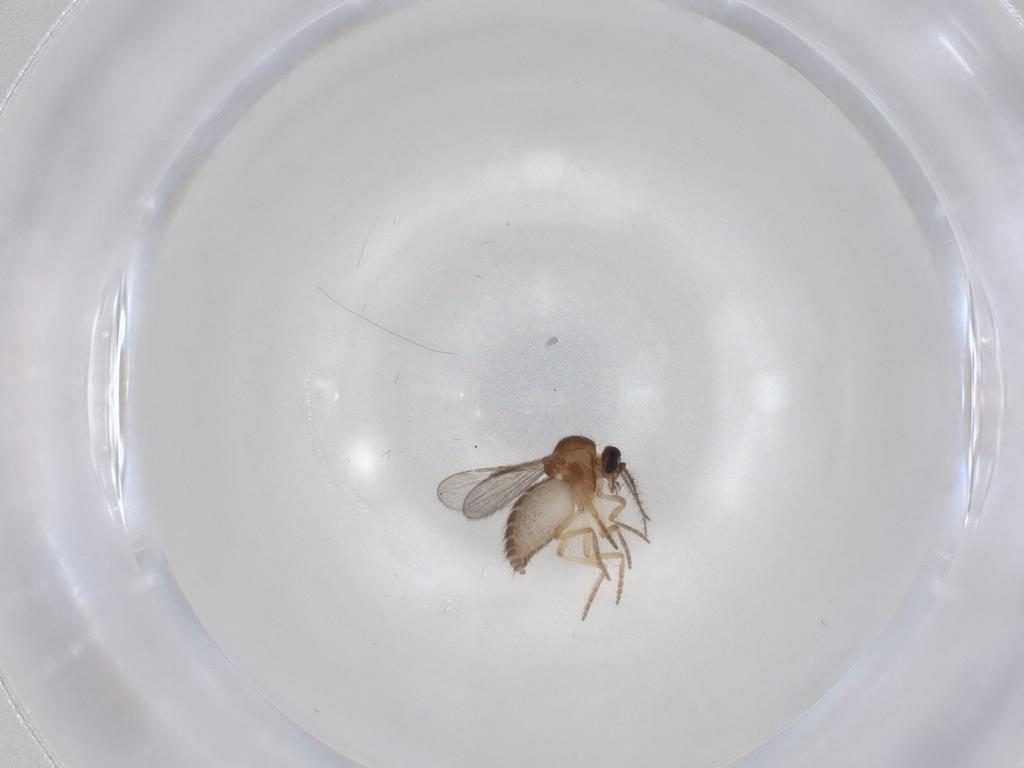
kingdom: Animalia
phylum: Arthropoda
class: Insecta
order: Diptera
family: Chironomidae
